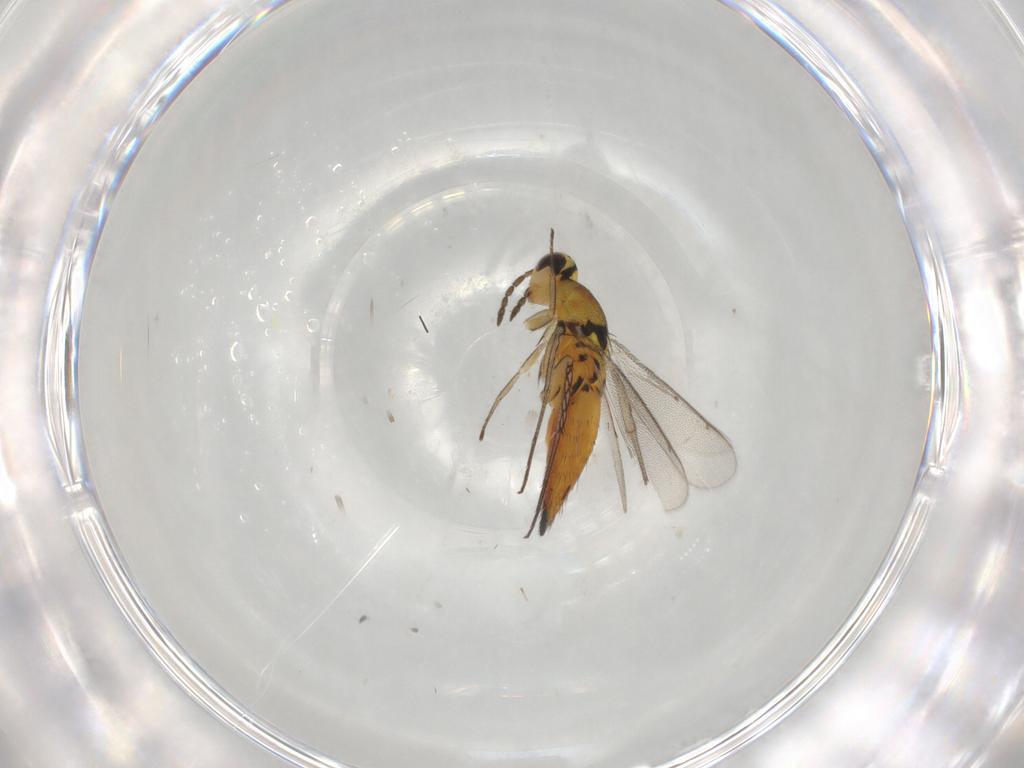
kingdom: Animalia
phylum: Arthropoda
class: Insecta
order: Hymenoptera
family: Eulophidae
